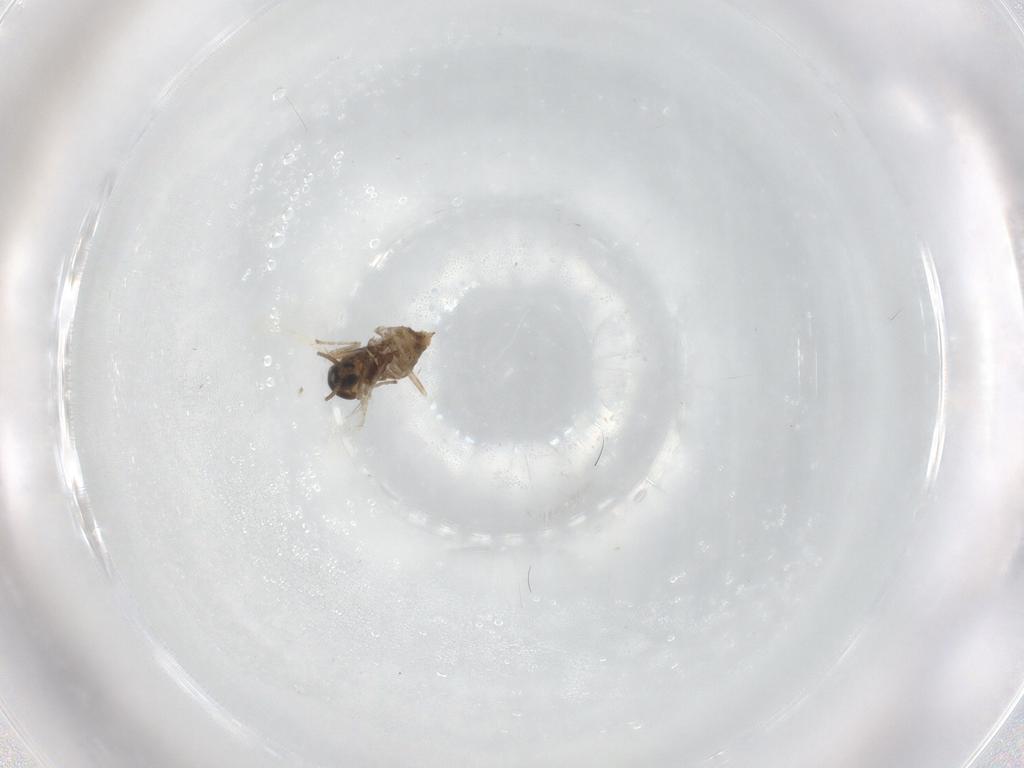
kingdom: Animalia
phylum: Arthropoda
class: Insecta
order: Diptera
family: Cecidomyiidae
